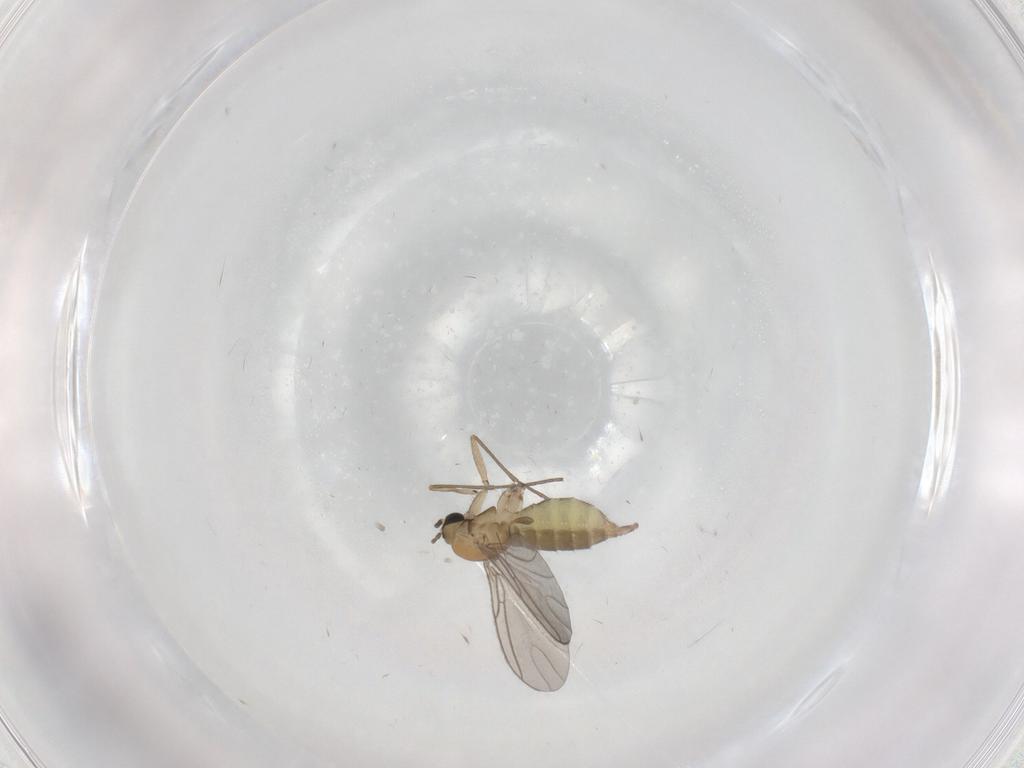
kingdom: Animalia
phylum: Arthropoda
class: Insecta
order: Diptera
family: Sciaridae
